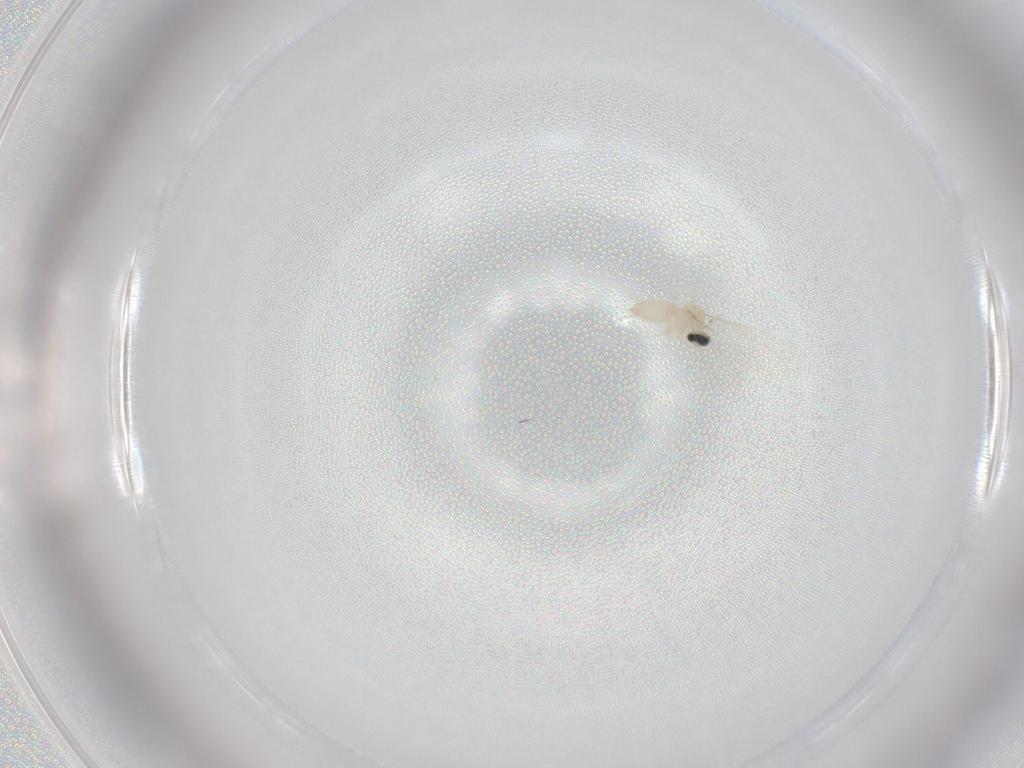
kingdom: Animalia
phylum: Arthropoda
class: Insecta
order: Diptera
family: Cecidomyiidae
